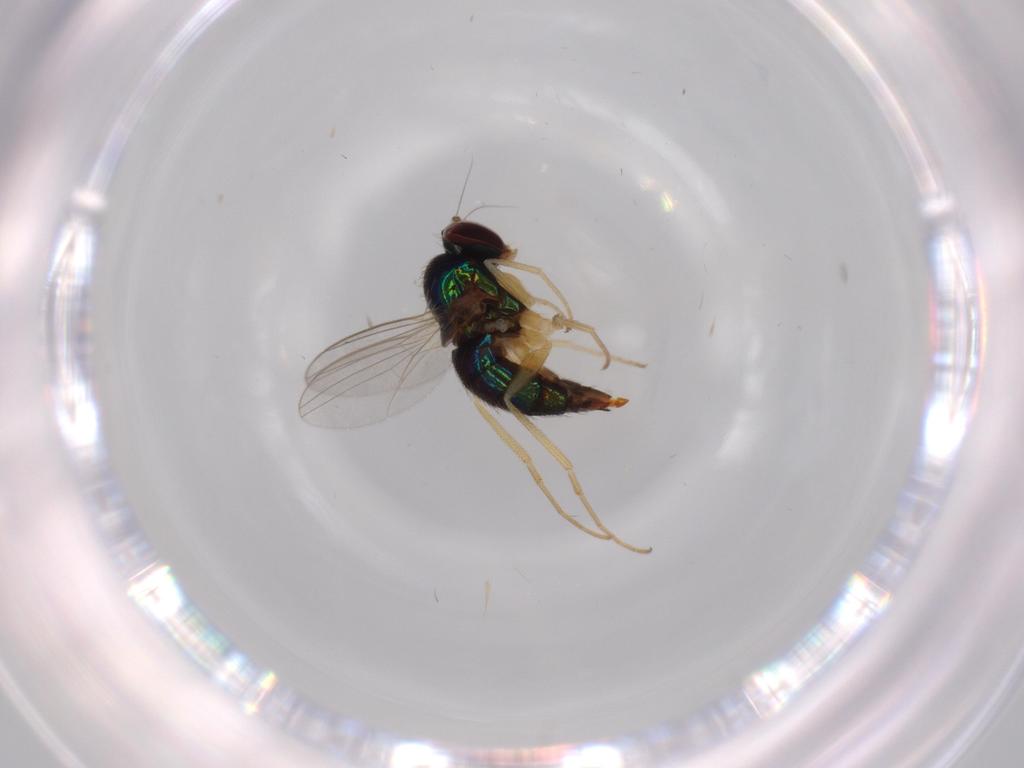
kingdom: Animalia
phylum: Arthropoda
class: Insecta
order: Diptera
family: Dolichopodidae
